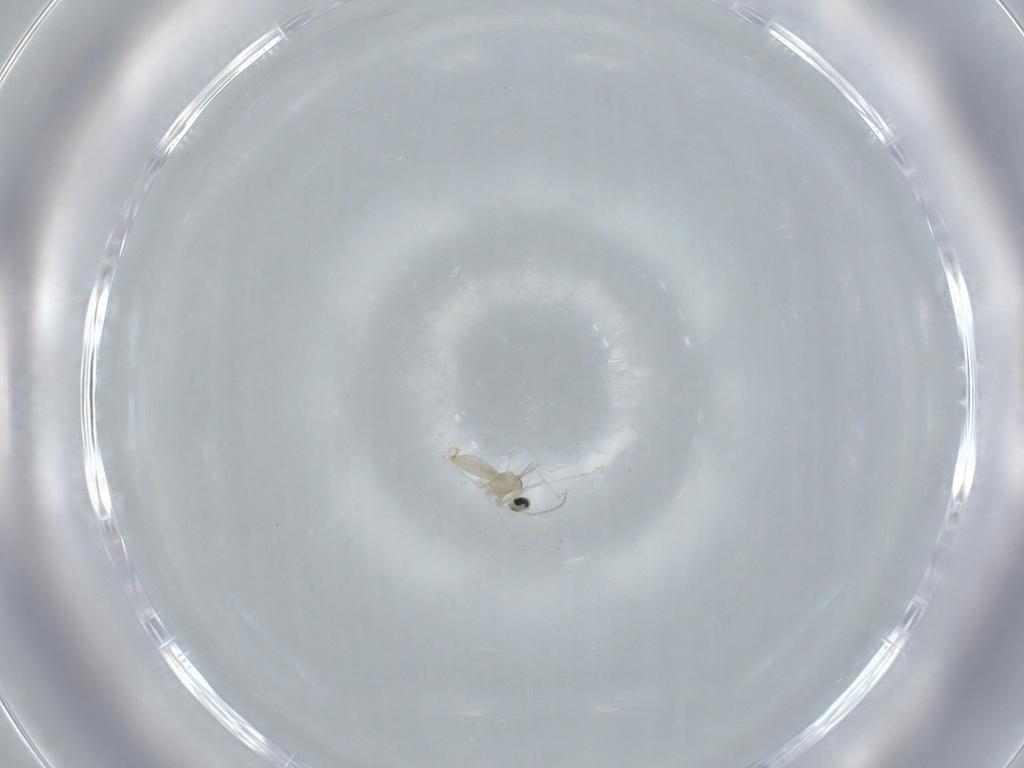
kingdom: Animalia
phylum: Arthropoda
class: Insecta
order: Diptera
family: Cecidomyiidae
